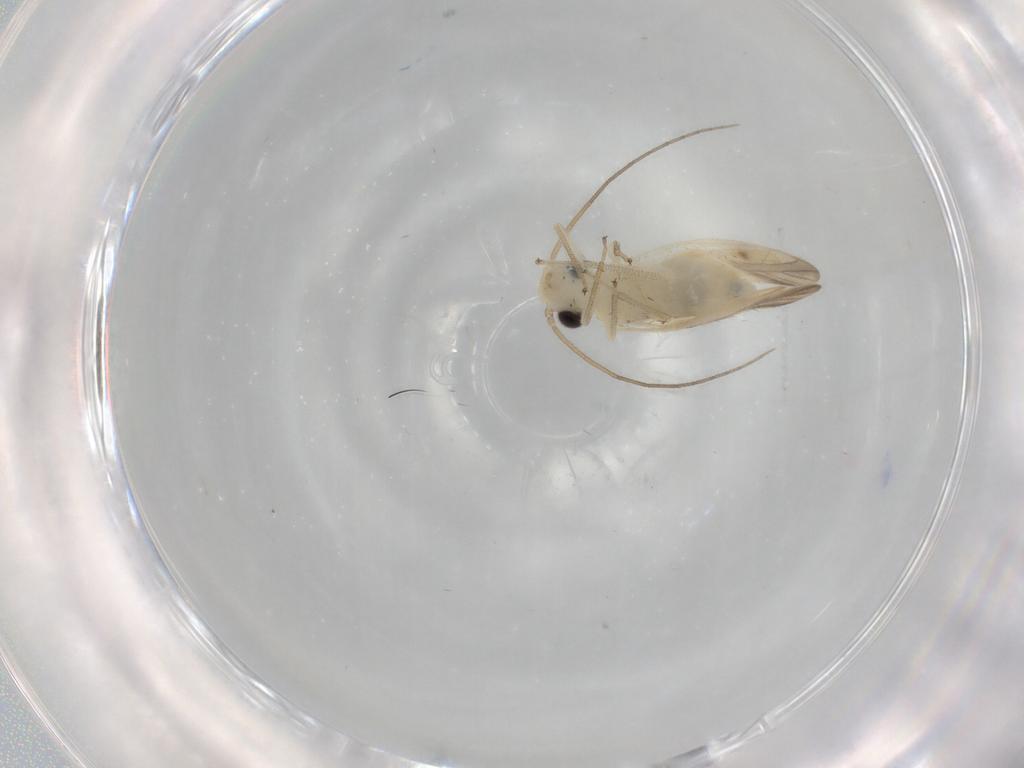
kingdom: Animalia
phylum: Arthropoda
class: Insecta
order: Psocodea
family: Caeciliusidae
